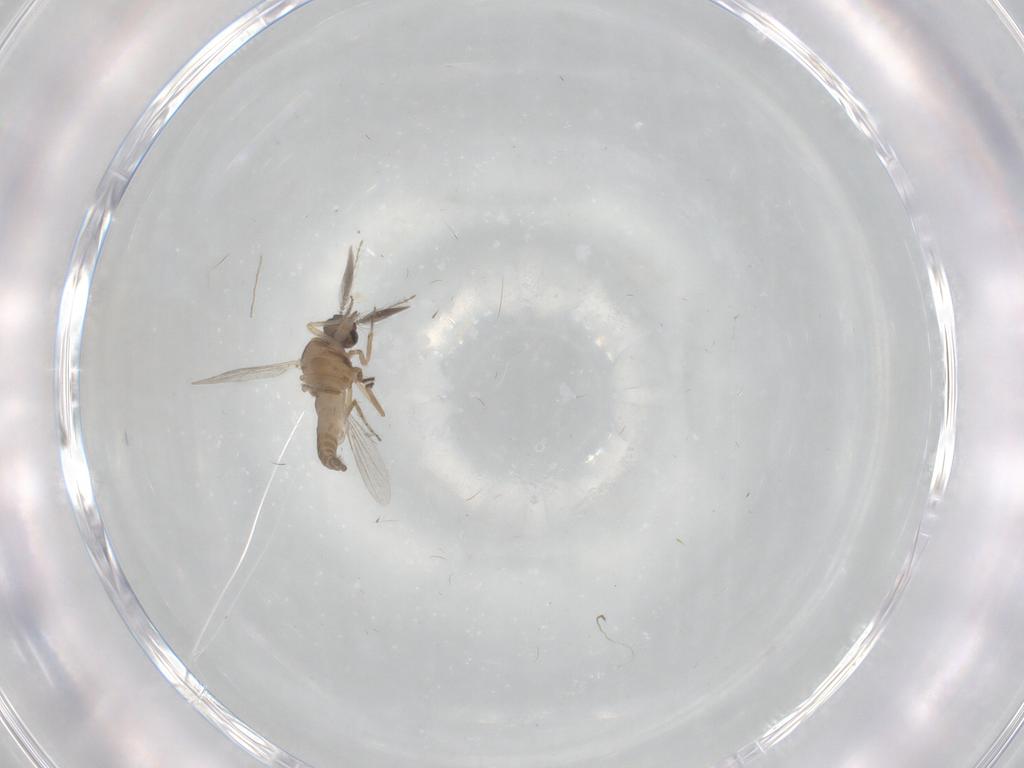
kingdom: Animalia
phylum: Arthropoda
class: Insecta
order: Diptera
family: Ceratopogonidae
